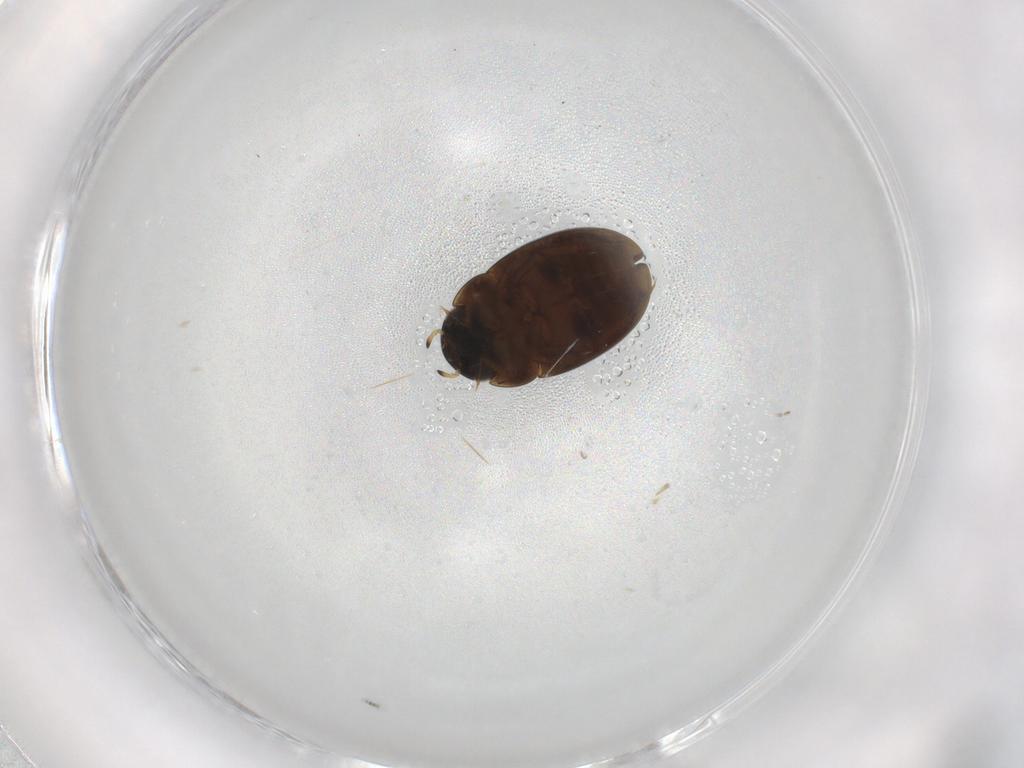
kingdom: Animalia
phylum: Arthropoda
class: Insecta
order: Coleoptera
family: Hydrophilidae
